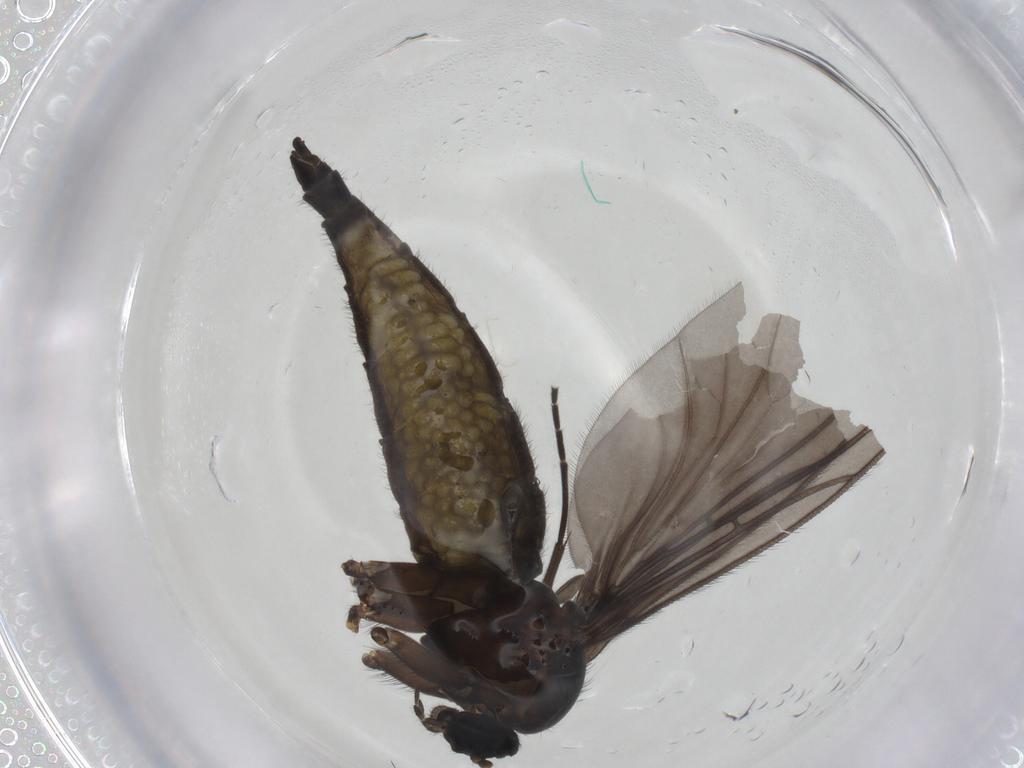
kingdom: Animalia
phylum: Arthropoda
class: Insecta
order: Diptera
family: Sciaridae
